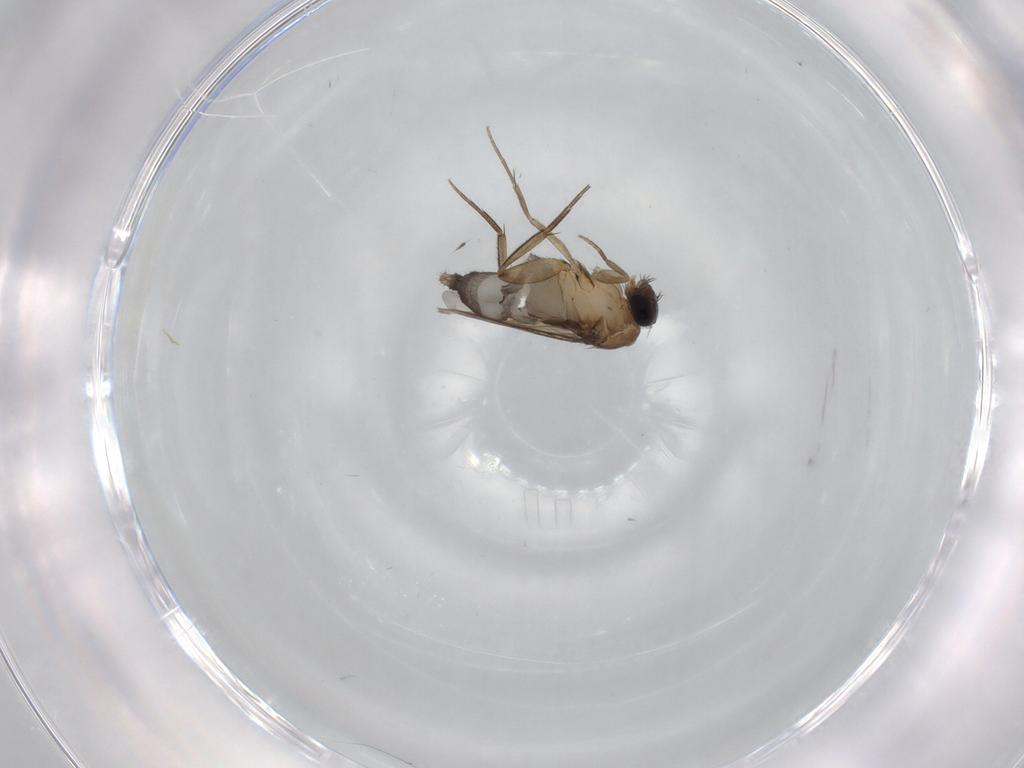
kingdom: Animalia
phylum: Arthropoda
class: Insecta
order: Diptera
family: Phoridae
